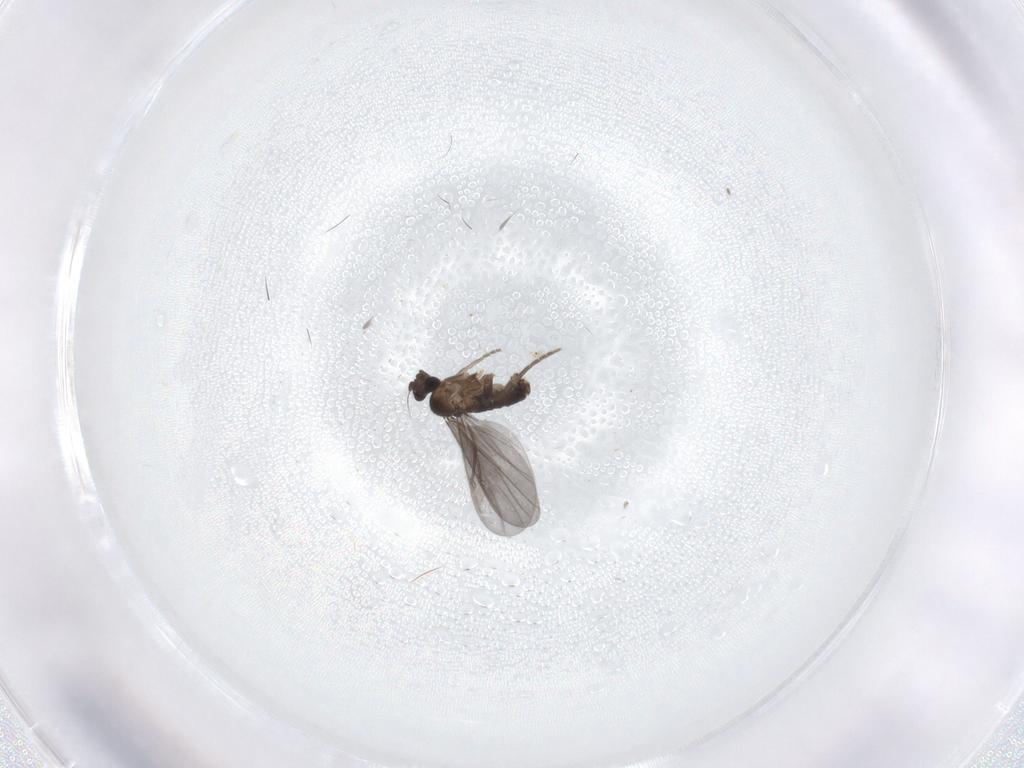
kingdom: Animalia
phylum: Arthropoda
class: Insecta
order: Diptera
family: Phoridae
